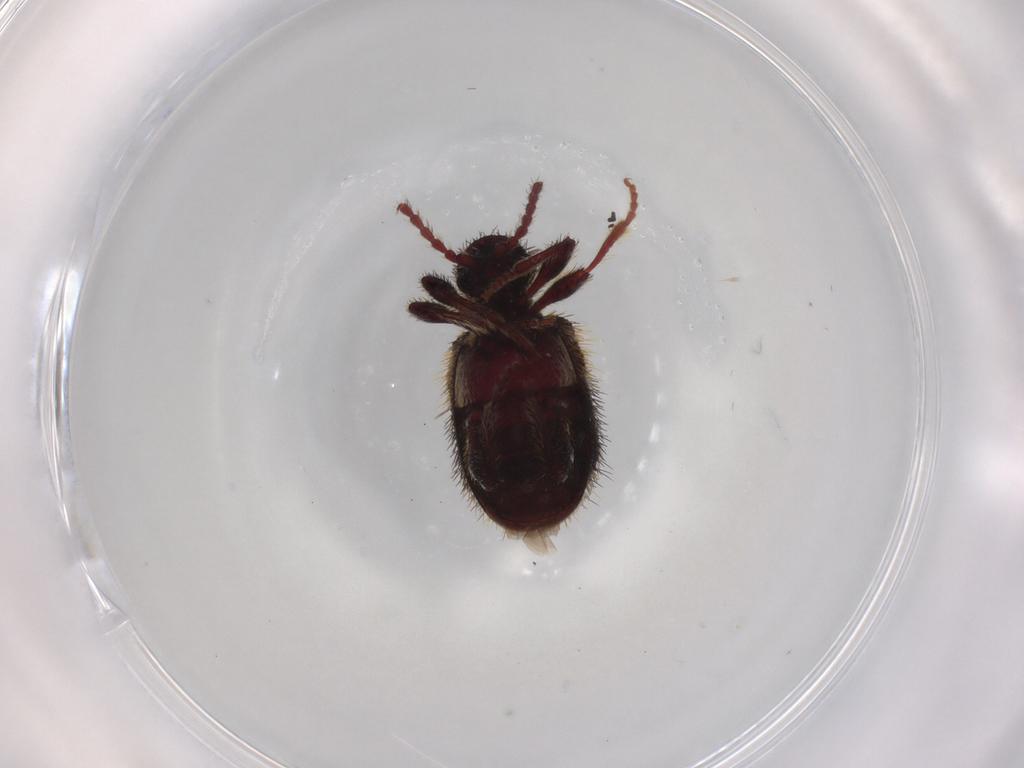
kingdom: Animalia
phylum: Arthropoda
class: Insecta
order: Coleoptera
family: Ptinidae
